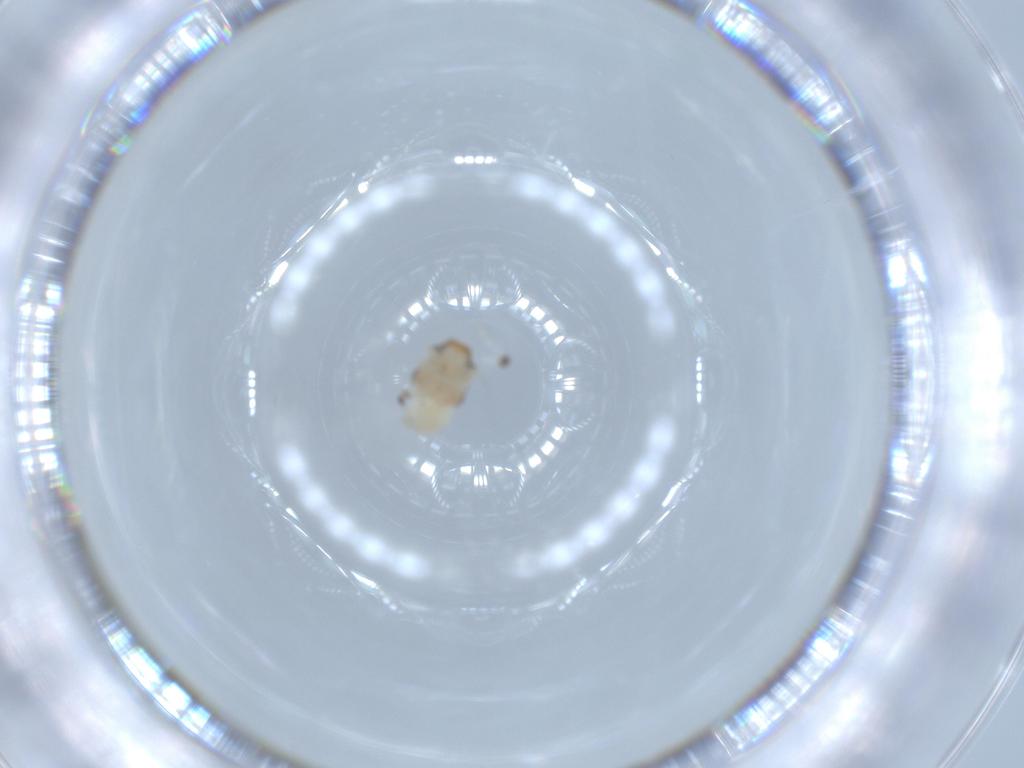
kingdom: Animalia
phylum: Arthropoda
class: Insecta
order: Hemiptera
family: Nogodinidae
